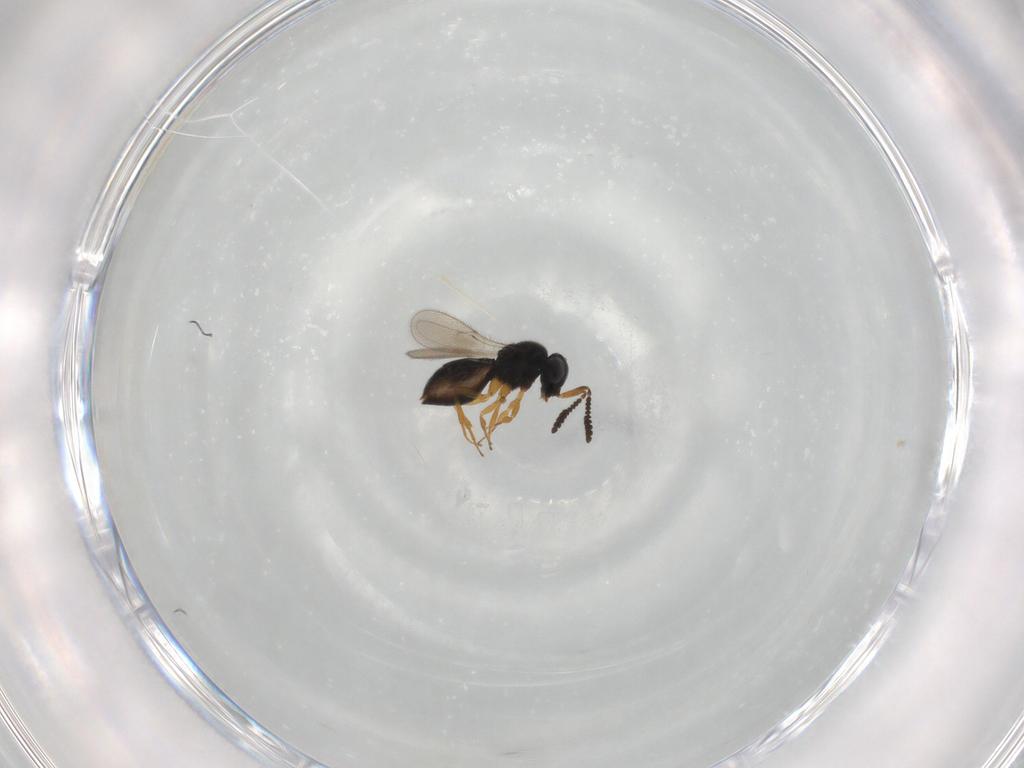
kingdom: Animalia
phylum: Arthropoda
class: Insecta
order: Hymenoptera
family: Scelionidae
